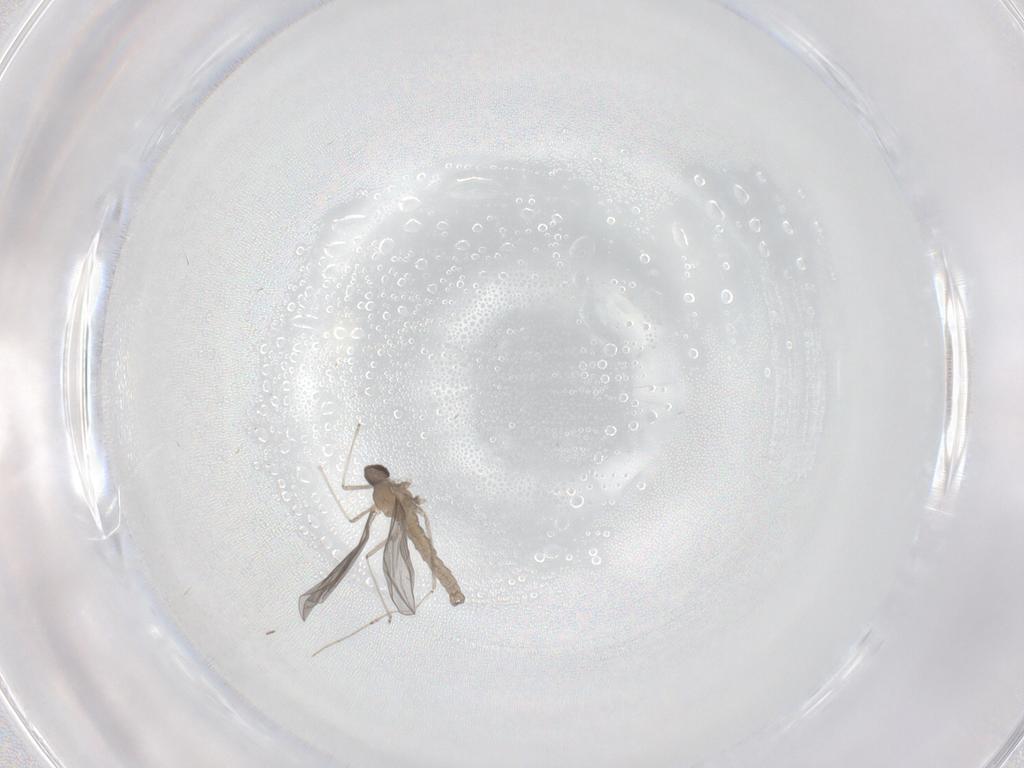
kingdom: Animalia
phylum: Arthropoda
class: Insecta
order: Diptera
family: Cecidomyiidae
